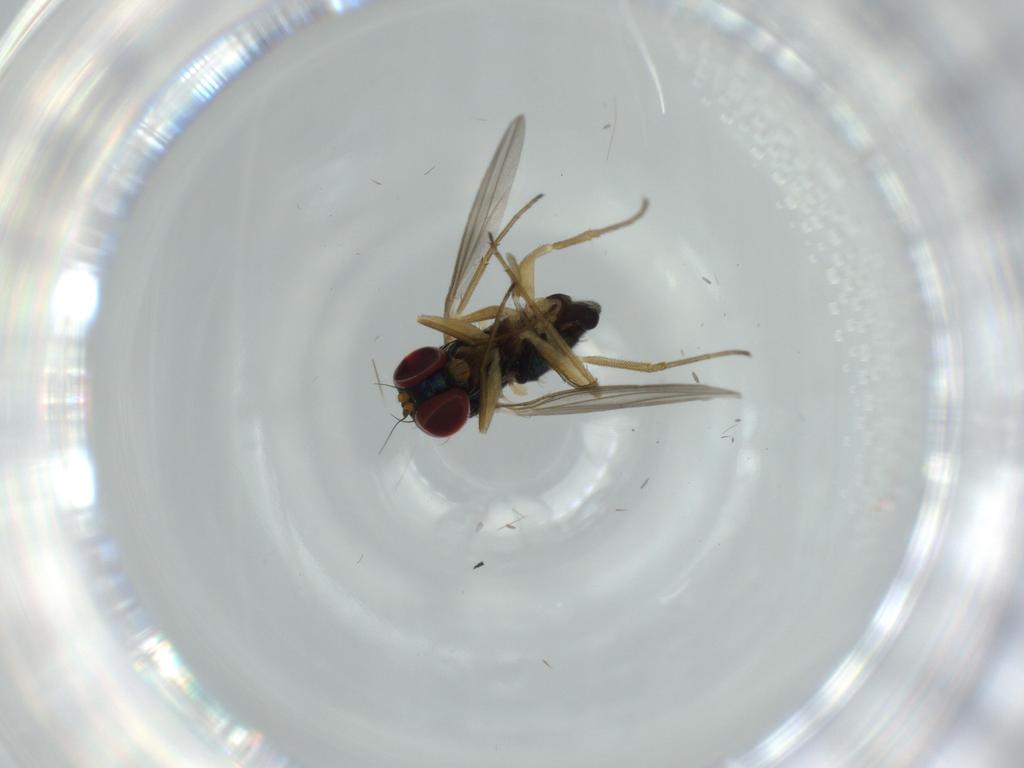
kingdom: Animalia
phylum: Arthropoda
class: Insecta
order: Diptera
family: Dolichopodidae
